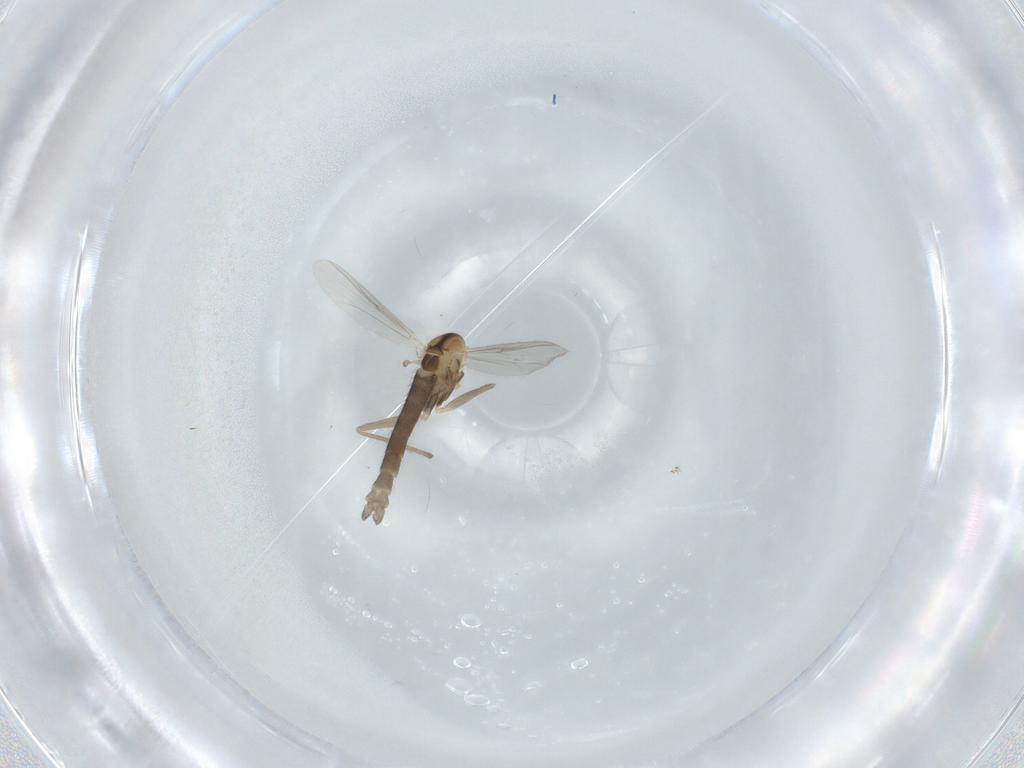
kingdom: Animalia
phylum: Arthropoda
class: Insecta
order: Diptera
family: Chironomidae
